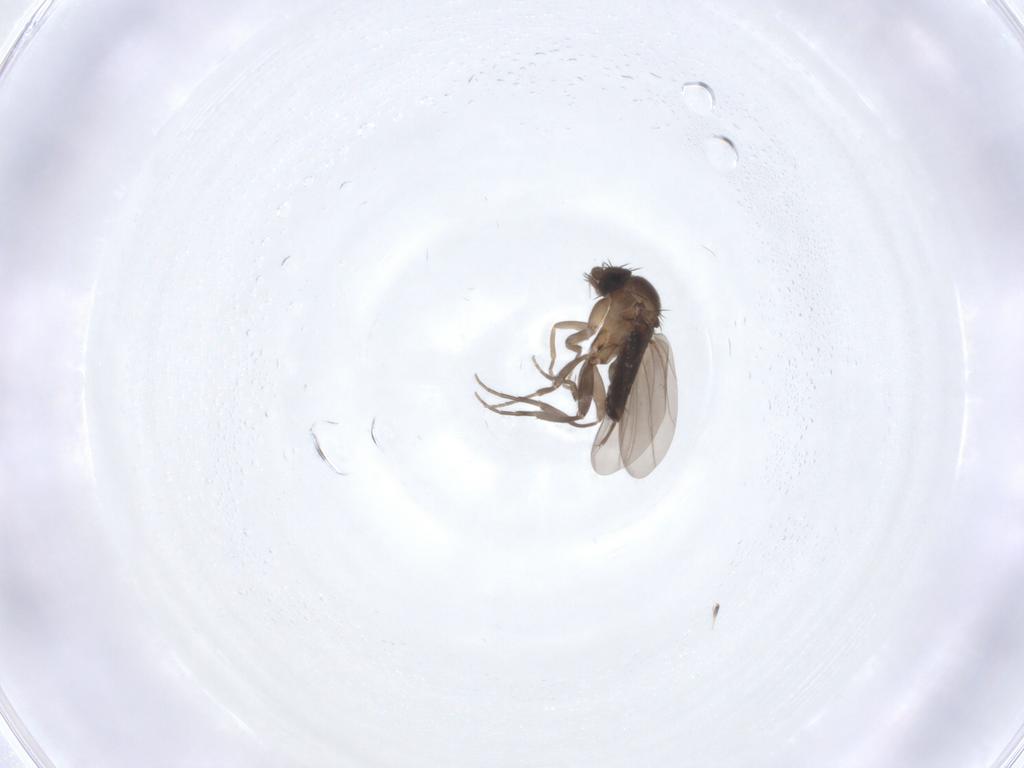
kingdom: Animalia
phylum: Arthropoda
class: Insecta
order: Diptera
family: Phoridae
